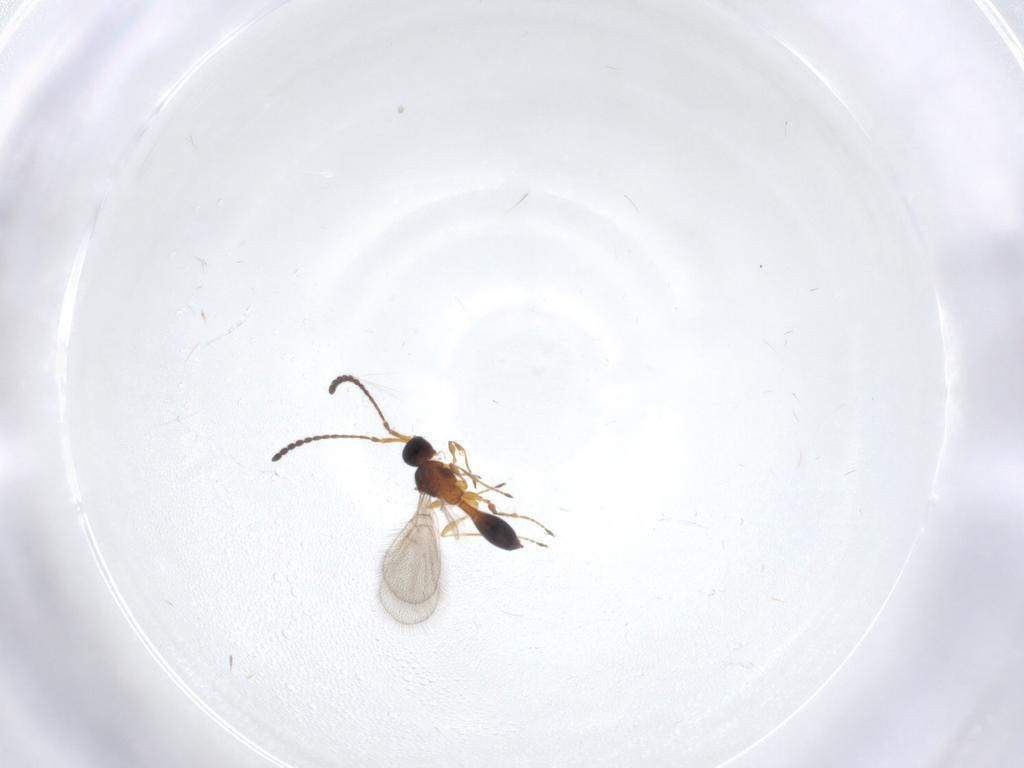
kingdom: Animalia
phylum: Arthropoda
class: Insecta
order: Hymenoptera
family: Diapriidae
